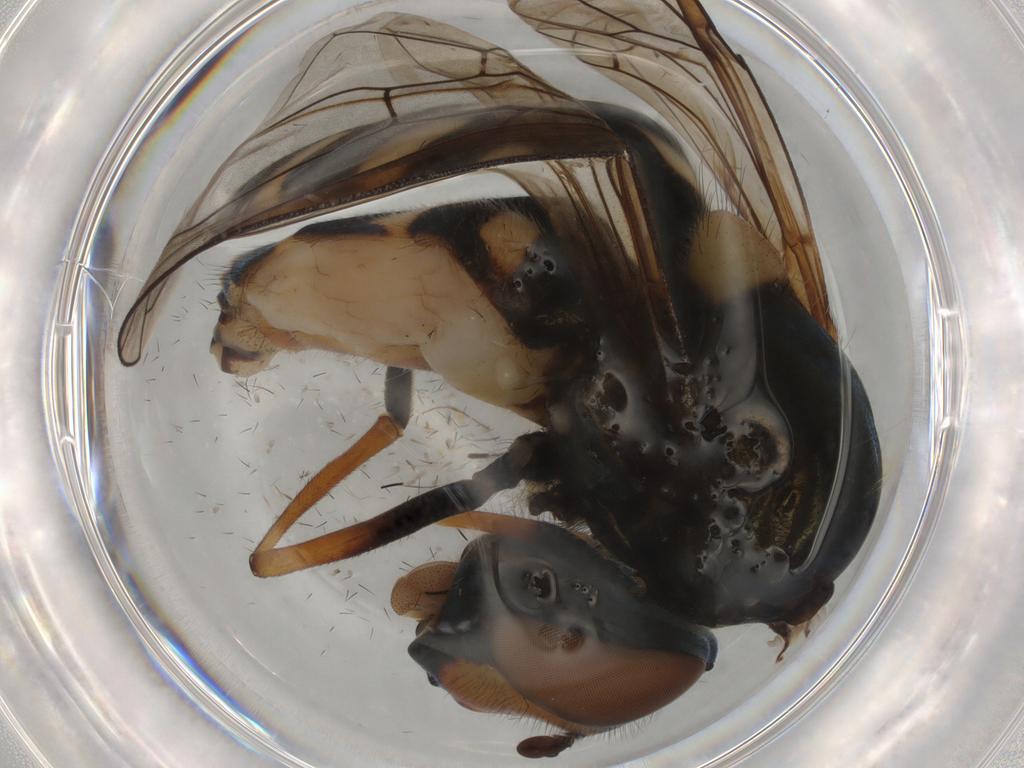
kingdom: Animalia
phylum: Arthropoda
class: Insecta
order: Diptera
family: Syrphidae
